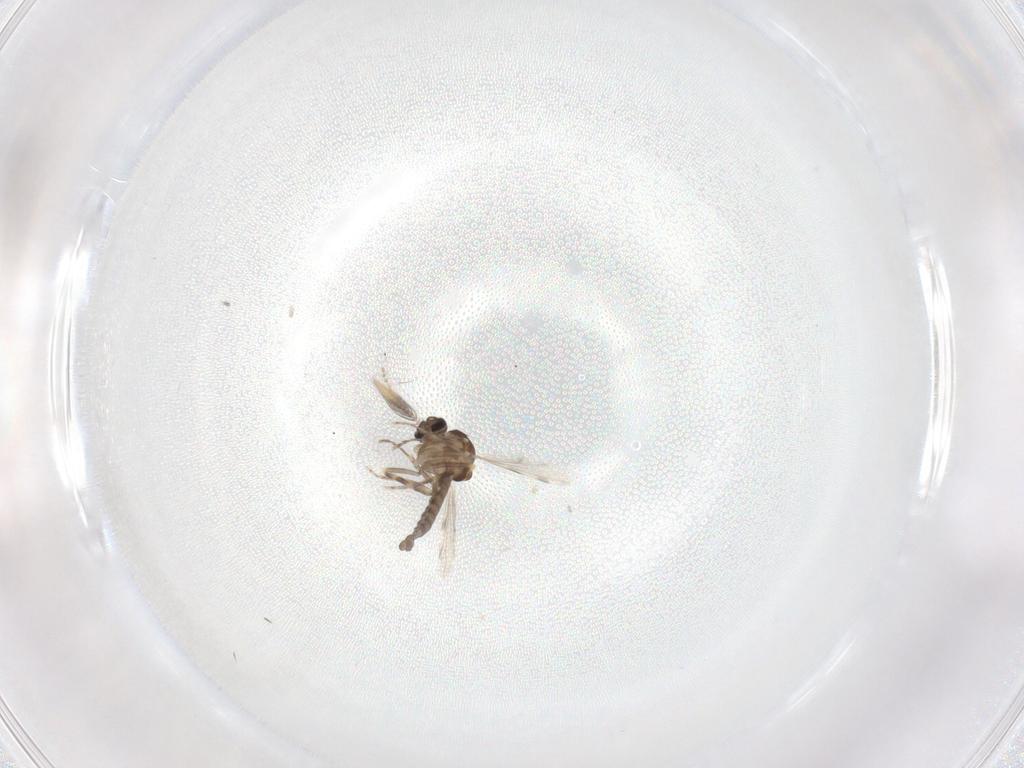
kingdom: Animalia
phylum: Arthropoda
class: Insecta
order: Diptera
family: Ceratopogonidae
